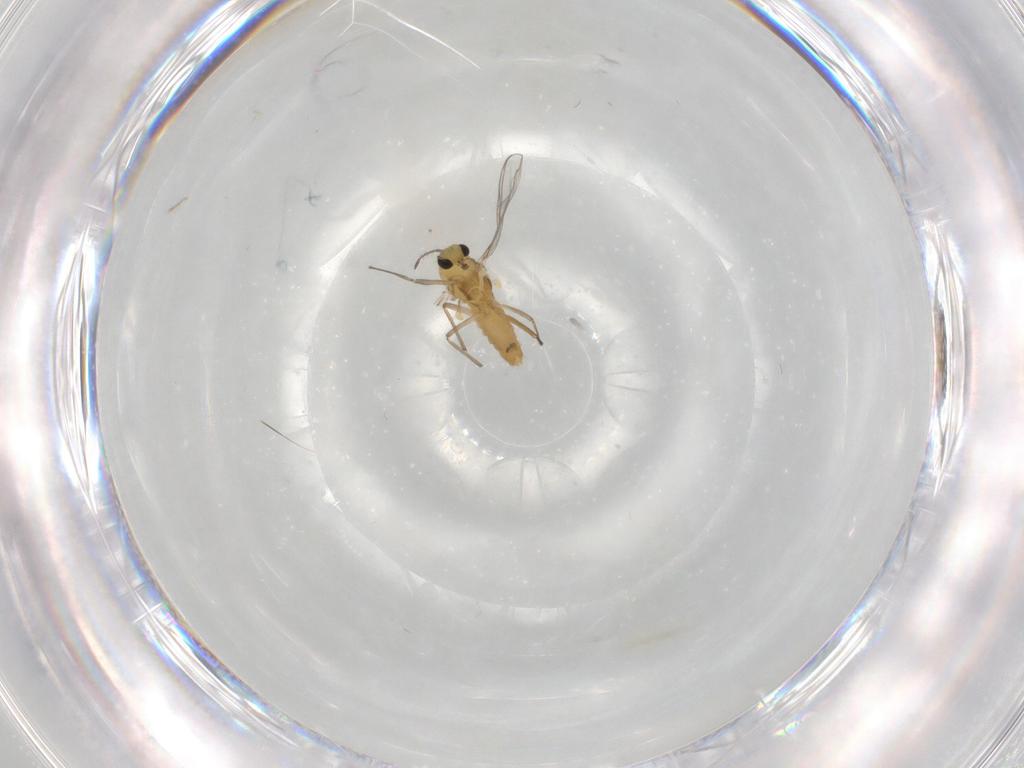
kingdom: Animalia
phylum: Arthropoda
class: Insecta
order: Diptera
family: Chironomidae
